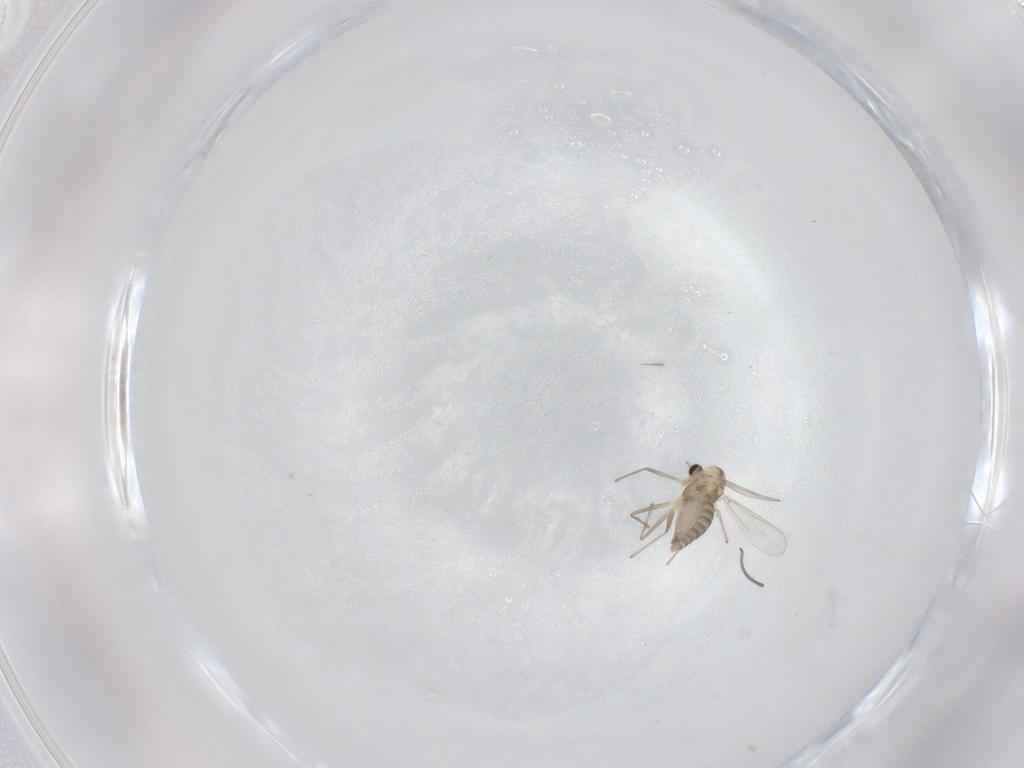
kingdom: Animalia
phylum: Arthropoda
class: Insecta
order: Diptera
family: Chironomidae
